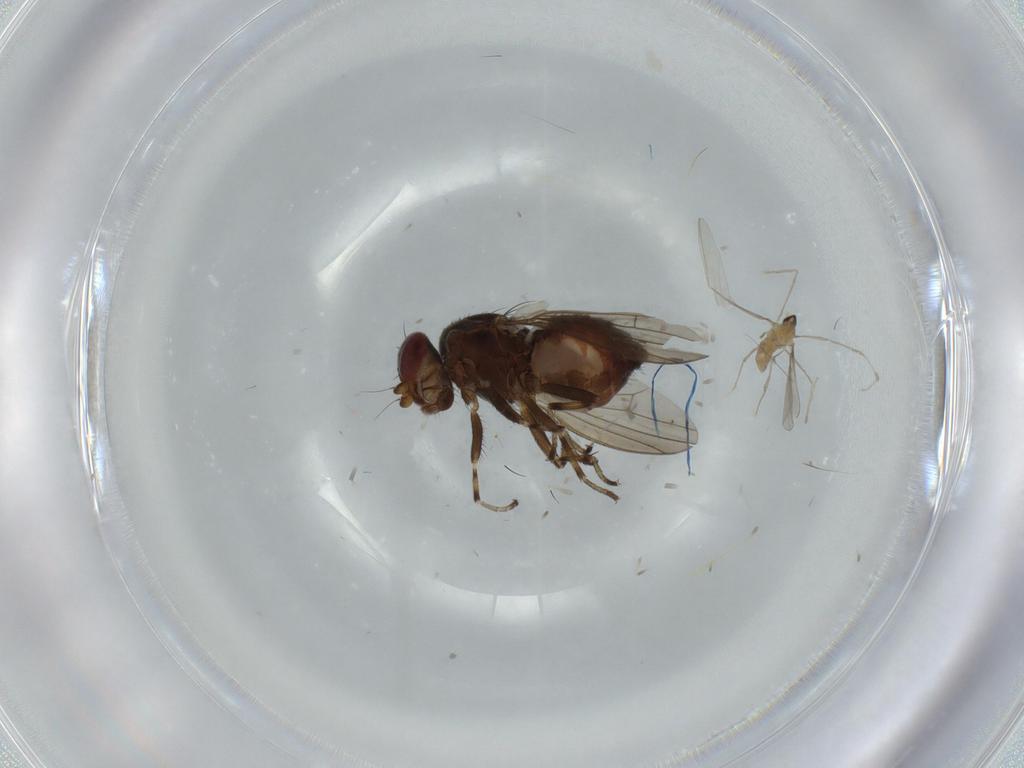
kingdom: Animalia
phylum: Arthropoda
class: Insecta
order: Diptera
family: Heleomyzidae
